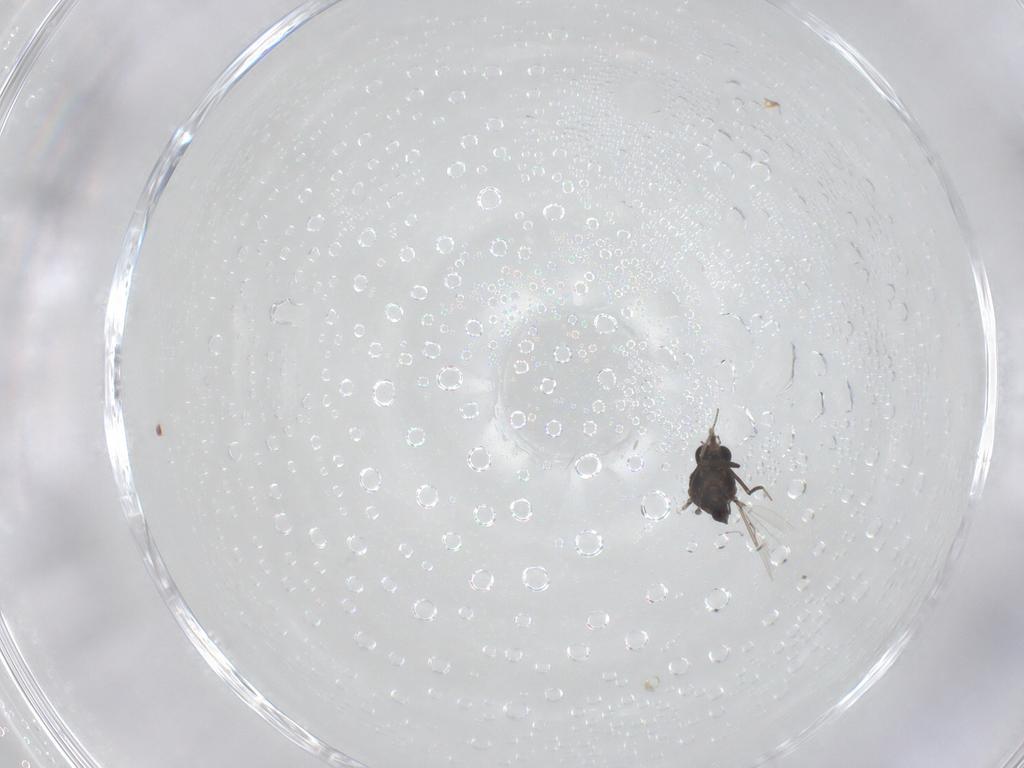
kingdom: Animalia
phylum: Arthropoda
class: Insecta
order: Diptera
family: Ceratopogonidae
